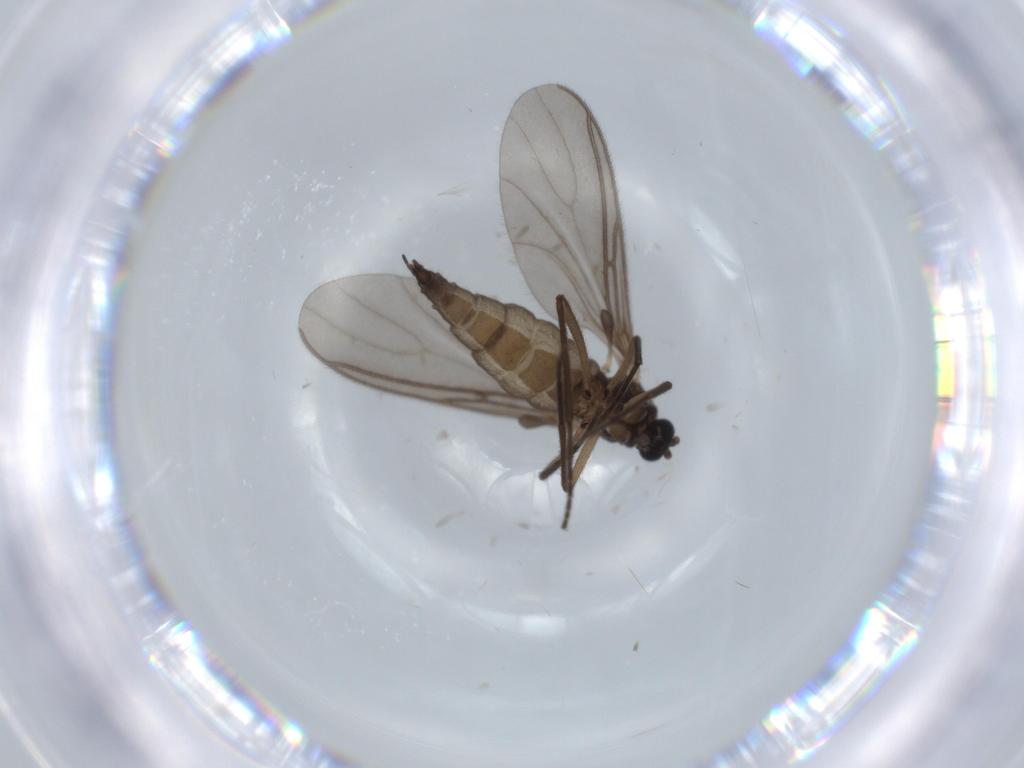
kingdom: Animalia
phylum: Arthropoda
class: Insecta
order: Diptera
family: Sciaridae
